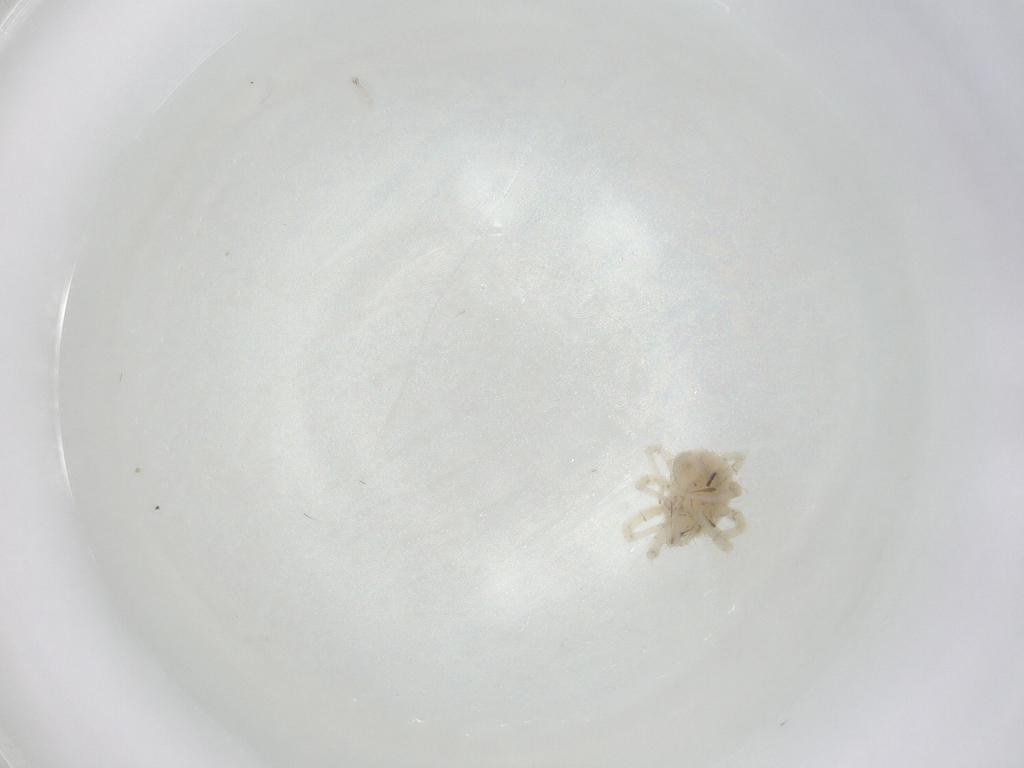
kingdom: Animalia
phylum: Arthropoda
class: Arachnida
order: Trombidiformes
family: Anystidae
